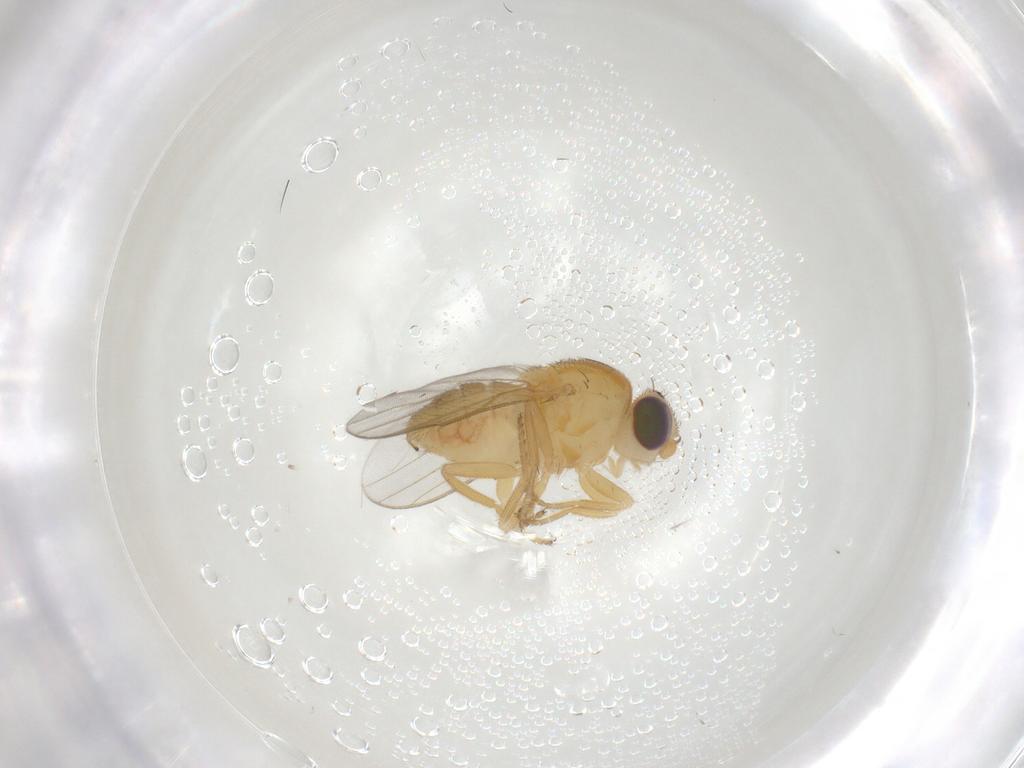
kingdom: Animalia
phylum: Arthropoda
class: Insecta
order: Diptera
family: Chloropidae
